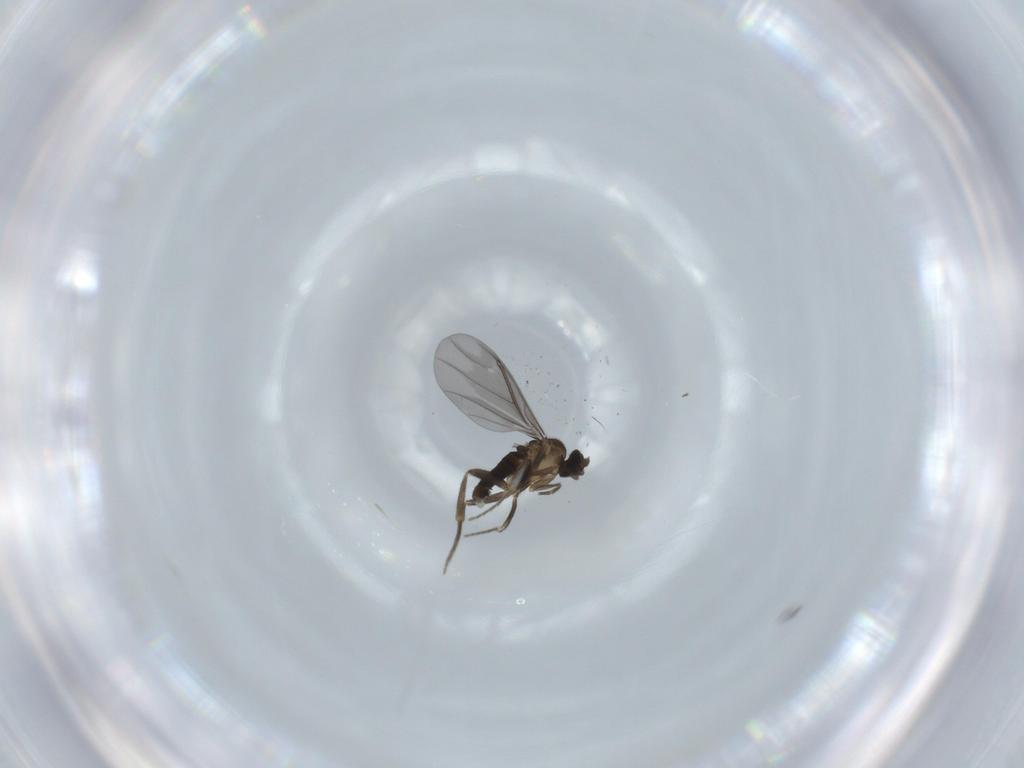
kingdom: Animalia
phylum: Arthropoda
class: Insecta
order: Diptera
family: Phoridae
